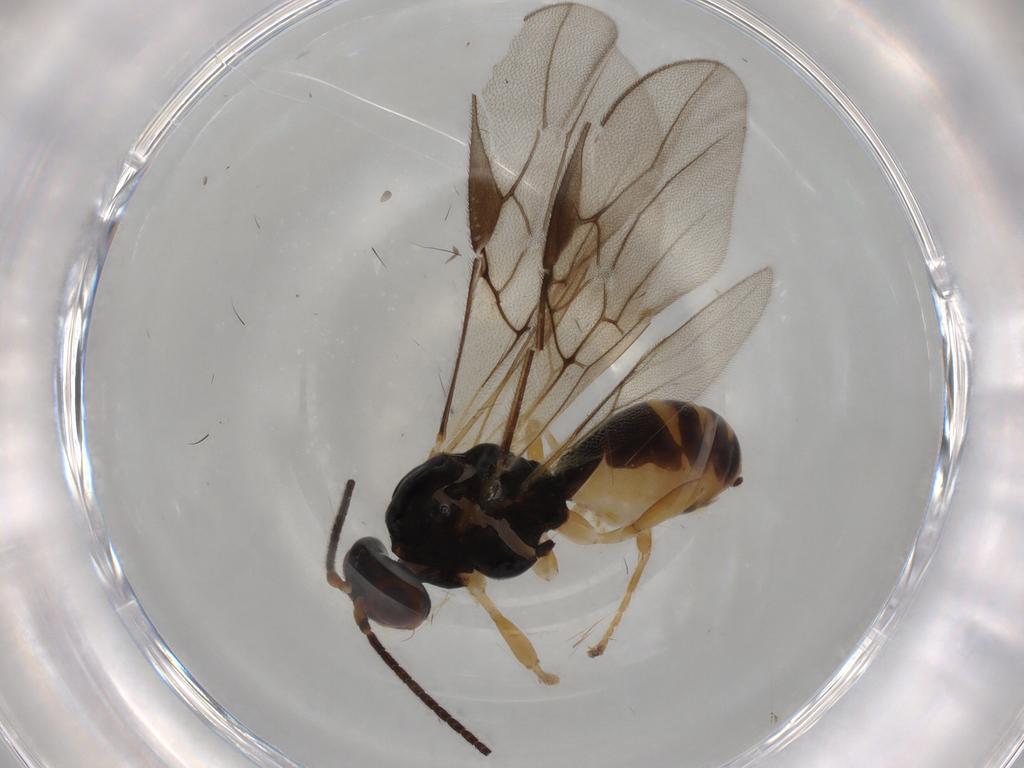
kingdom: Animalia
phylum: Arthropoda
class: Insecta
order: Hymenoptera
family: Braconidae
